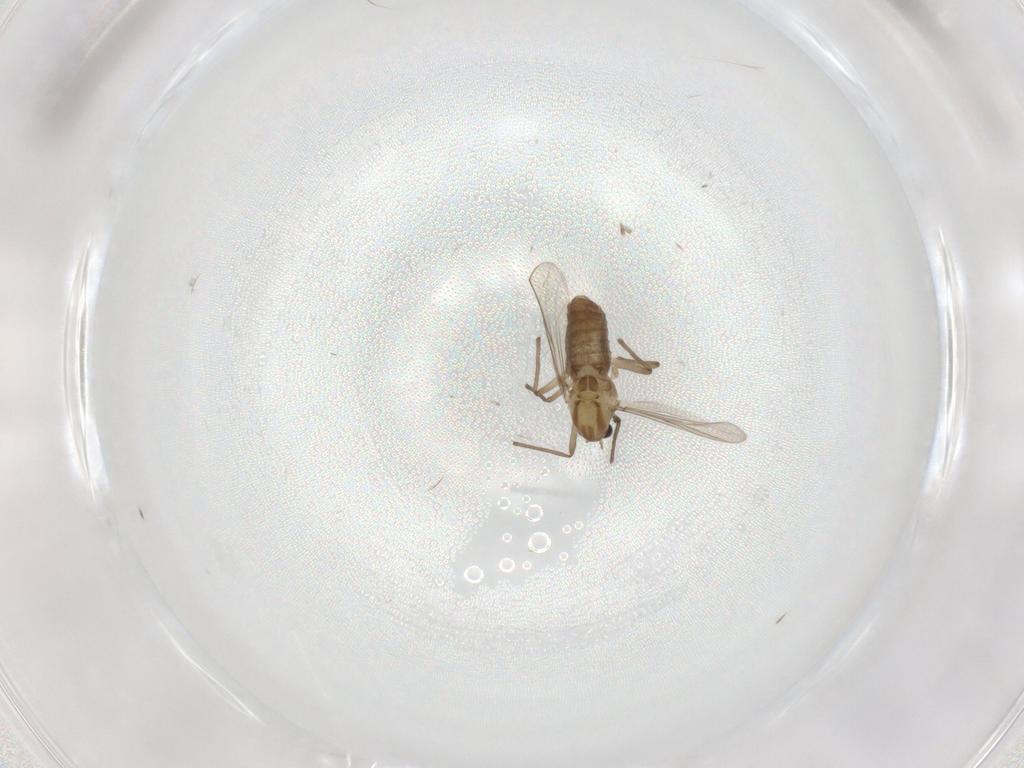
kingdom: Animalia
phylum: Arthropoda
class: Insecta
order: Diptera
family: Chironomidae
